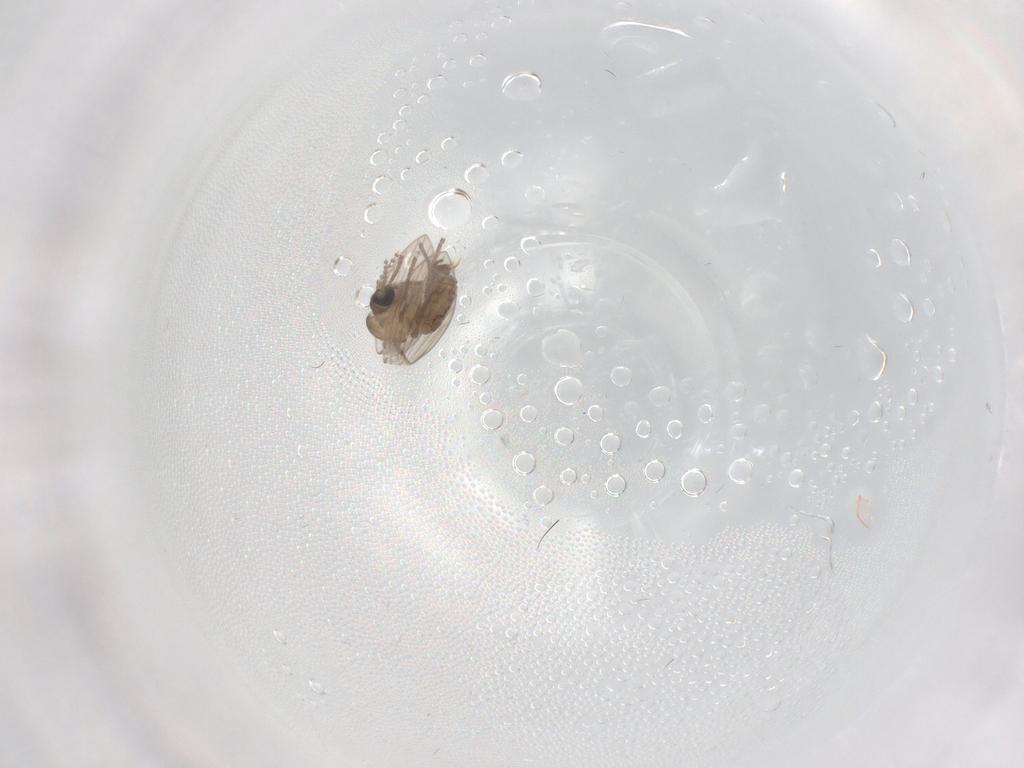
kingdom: Animalia
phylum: Arthropoda
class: Insecta
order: Diptera
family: Psychodidae
